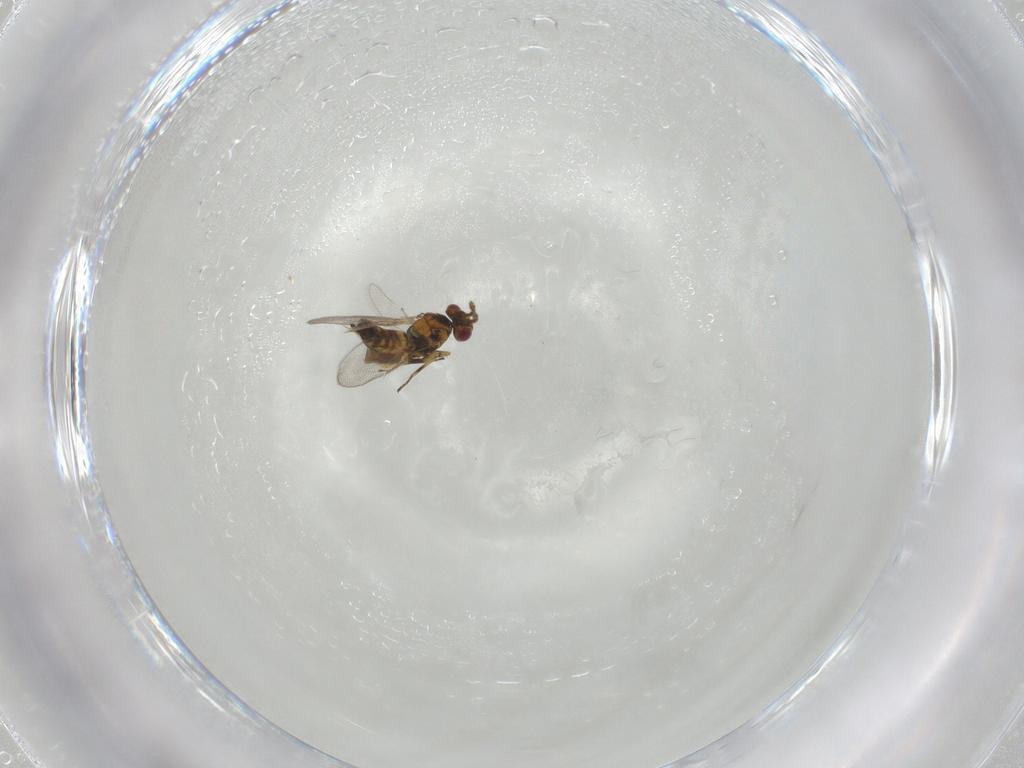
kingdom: Animalia
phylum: Arthropoda
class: Insecta
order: Hymenoptera
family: Eulophidae
